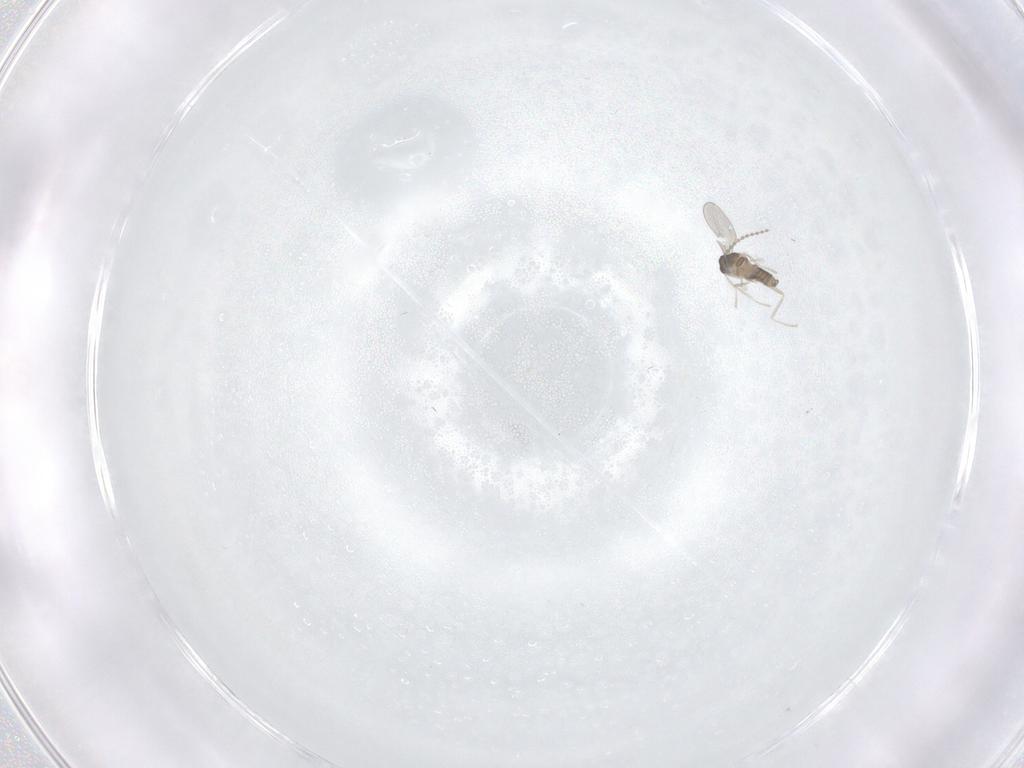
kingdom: Animalia
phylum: Arthropoda
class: Insecta
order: Diptera
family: Cecidomyiidae
